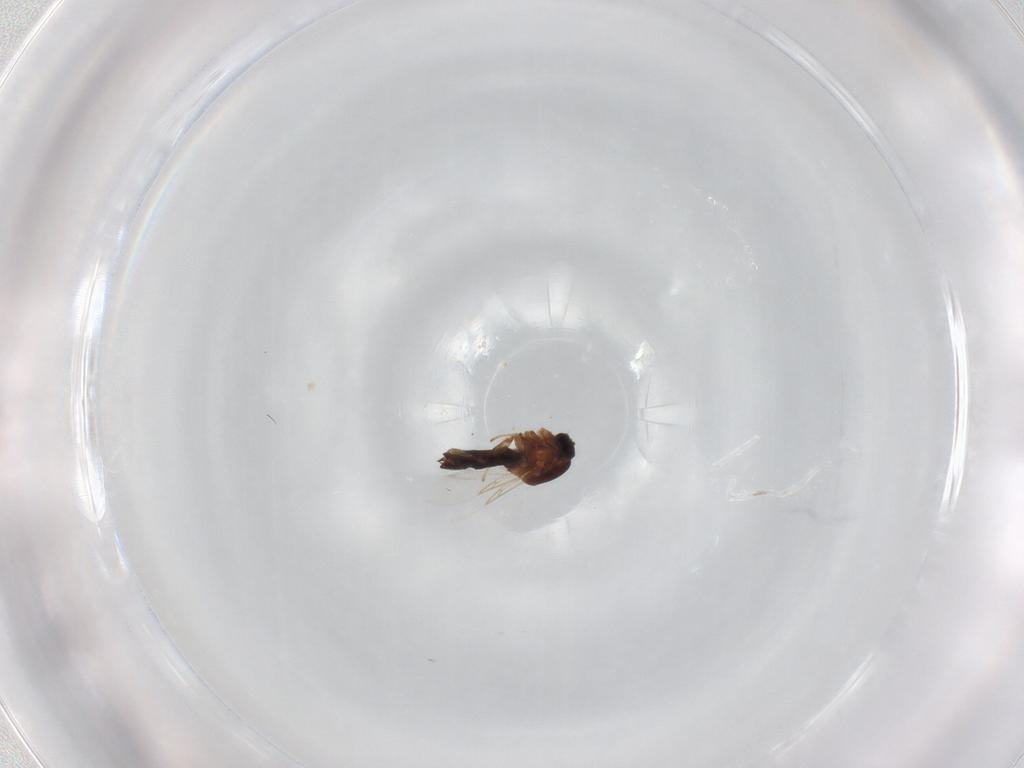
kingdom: Animalia
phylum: Arthropoda
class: Insecta
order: Diptera
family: Scatopsidae
